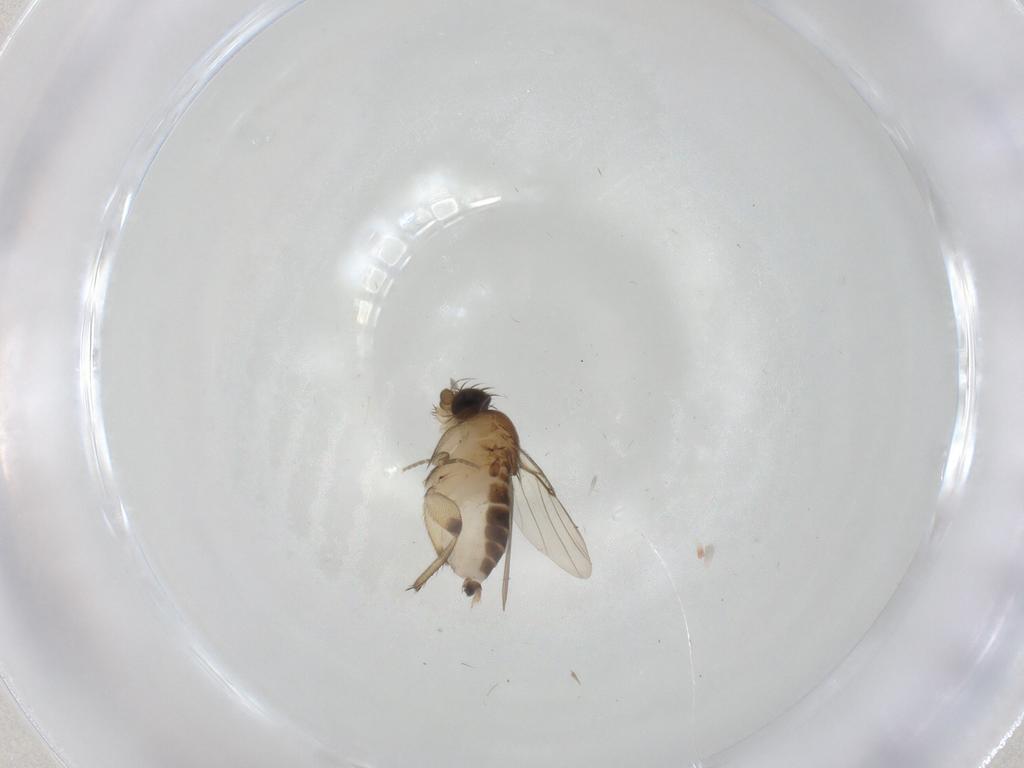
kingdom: Animalia
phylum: Arthropoda
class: Insecta
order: Diptera
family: Phoridae
